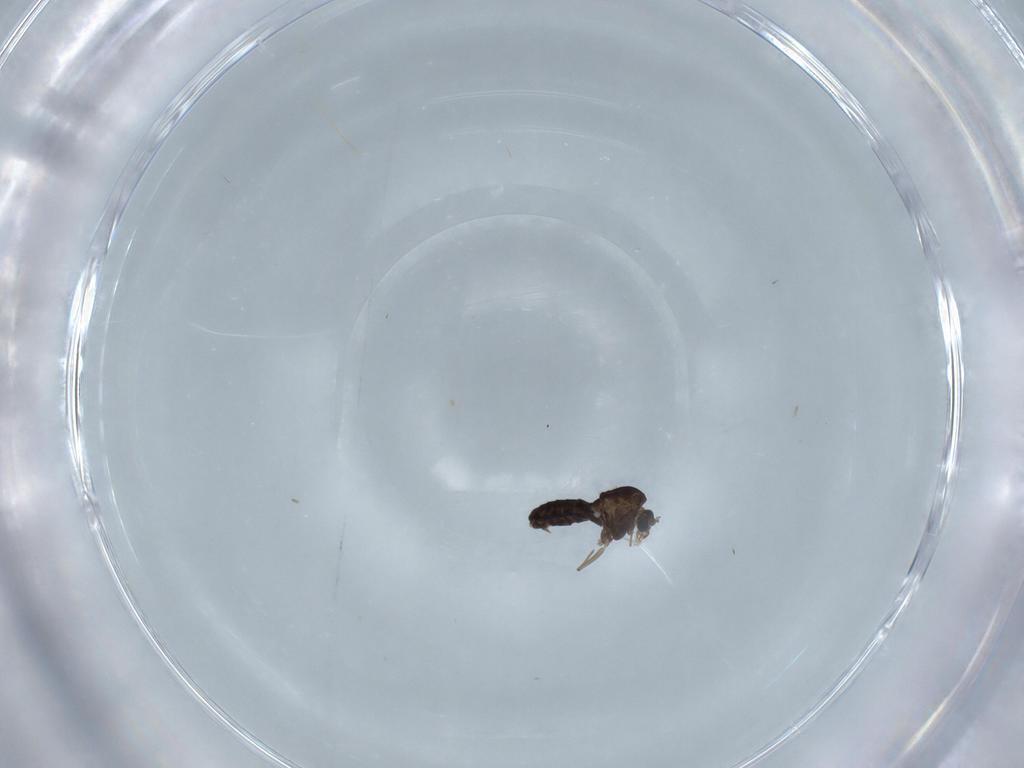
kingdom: Animalia
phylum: Arthropoda
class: Insecta
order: Diptera
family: Chironomidae
